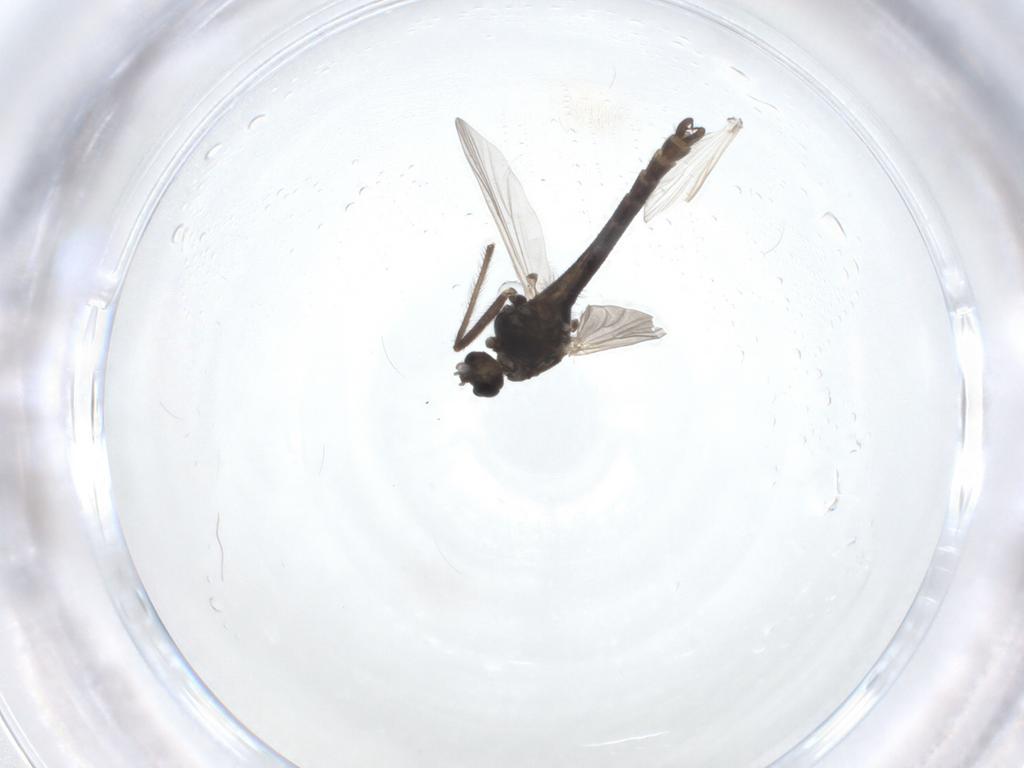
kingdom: Animalia
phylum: Arthropoda
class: Insecta
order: Diptera
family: Chironomidae
